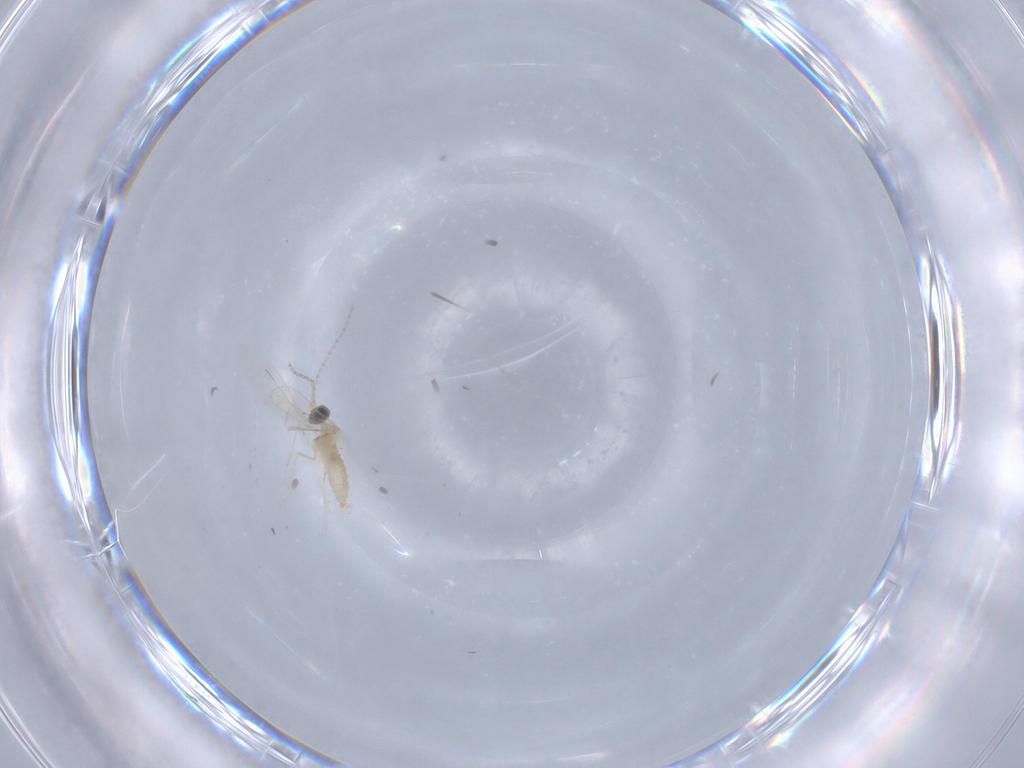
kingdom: Animalia
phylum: Arthropoda
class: Insecta
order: Diptera
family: Cecidomyiidae
